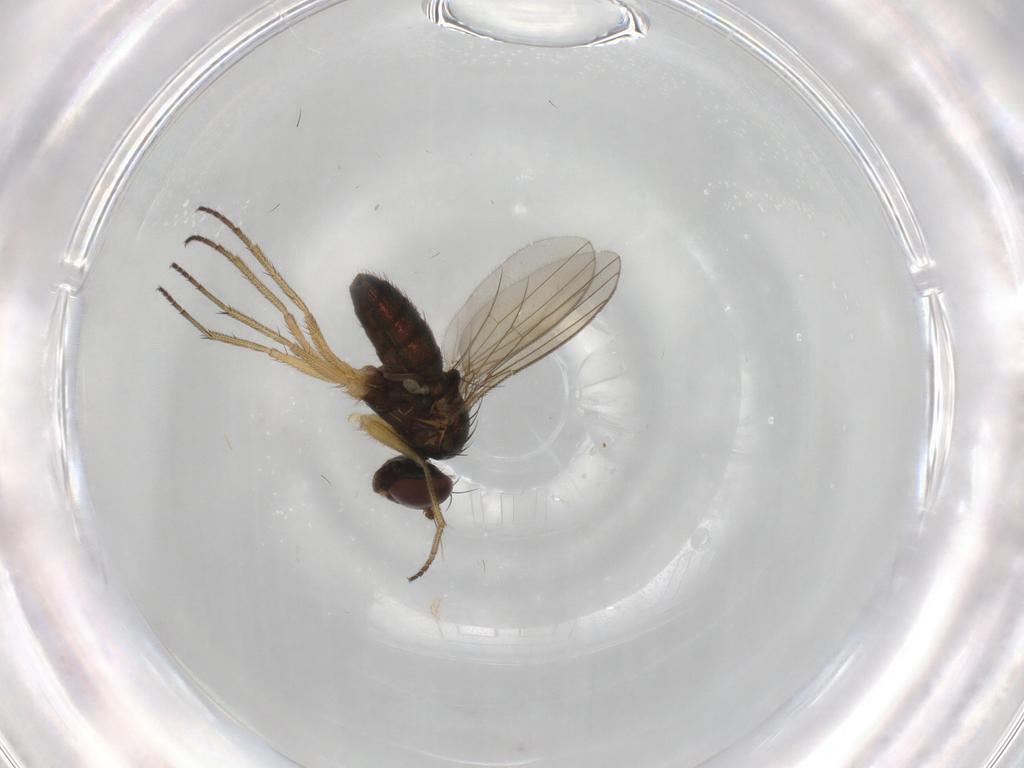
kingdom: Animalia
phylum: Arthropoda
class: Insecta
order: Diptera
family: Dolichopodidae
